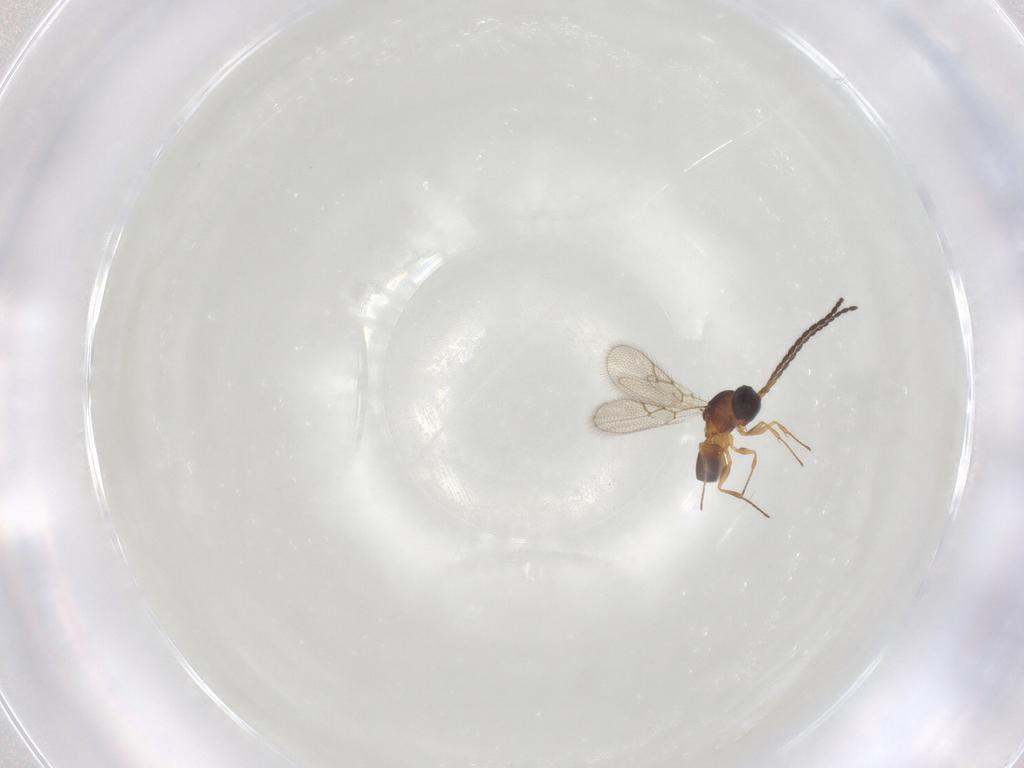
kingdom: Animalia
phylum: Arthropoda
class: Insecta
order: Hymenoptera
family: Figitidae
